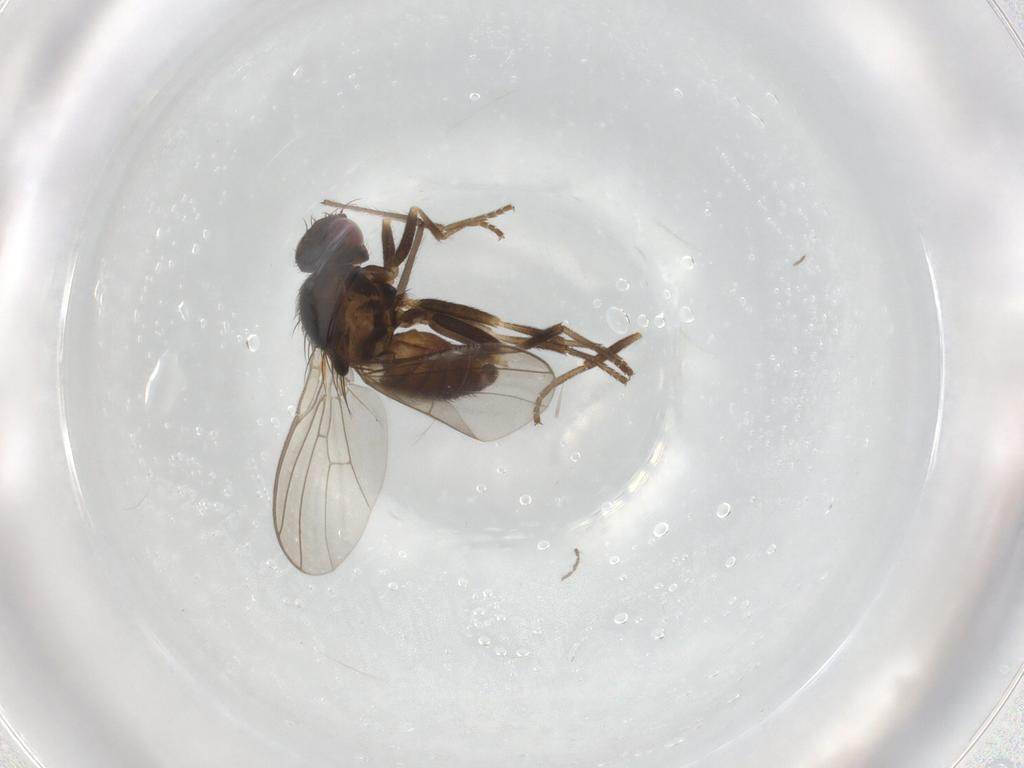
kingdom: Animalia
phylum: Arthropoda
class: Insecta
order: Diptera
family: Agromyzidae
